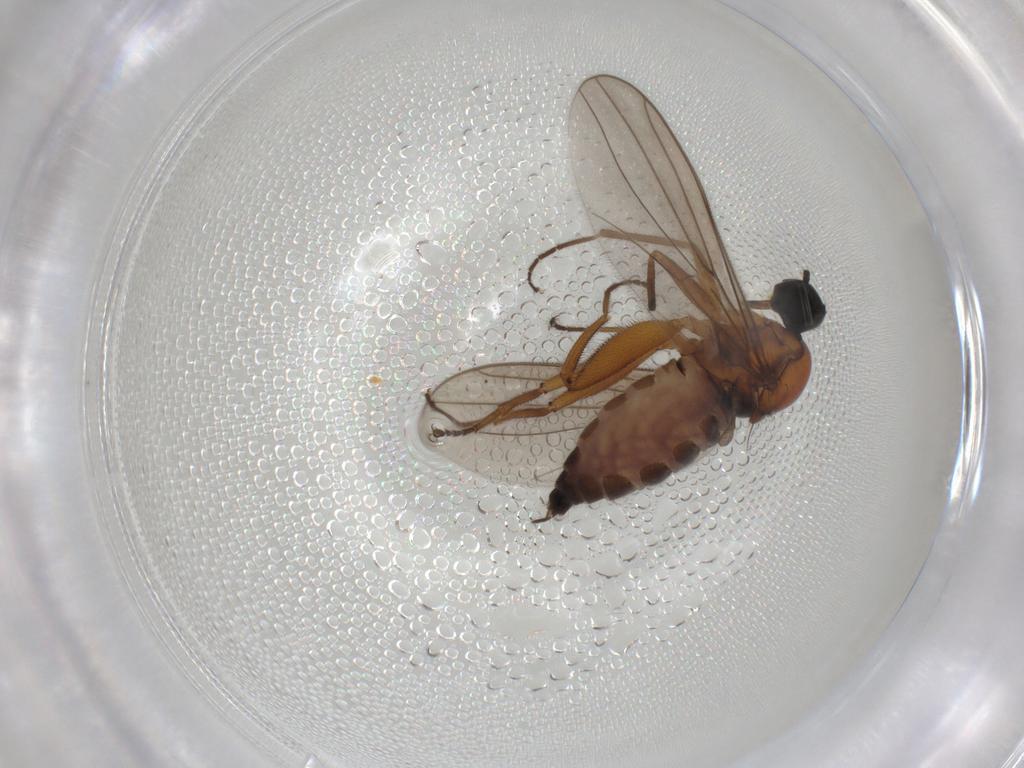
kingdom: Animalia
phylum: Arthropoda
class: Insecta
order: Diptera
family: Hybotidae
